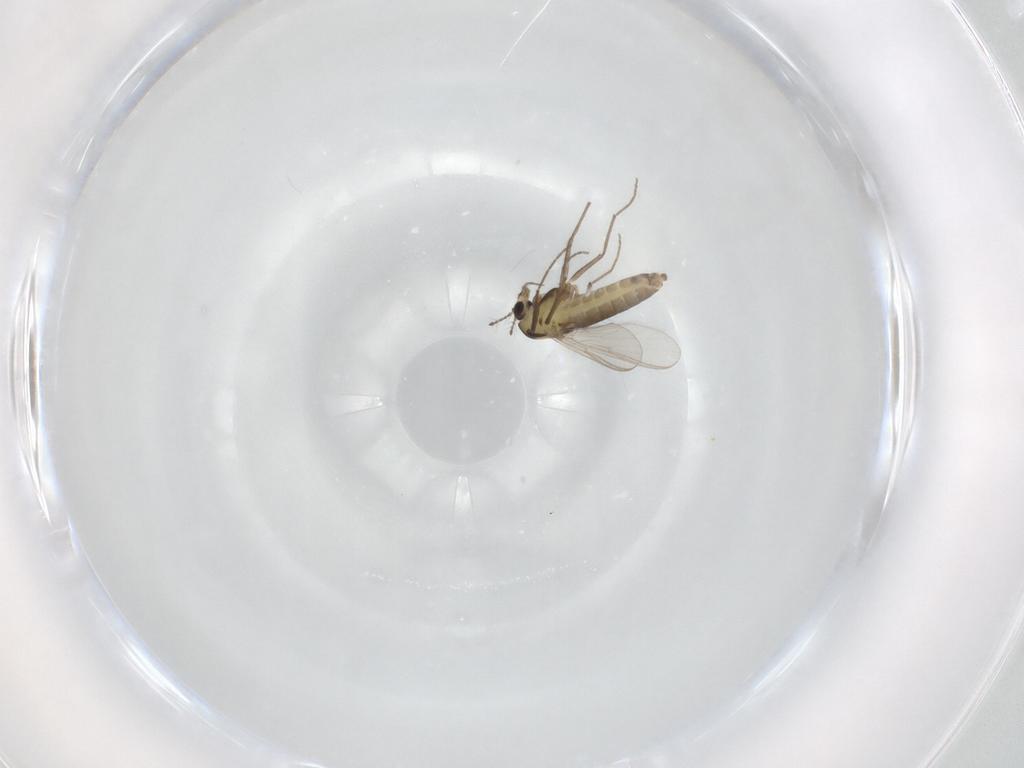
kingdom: Animalia
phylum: Arthropoda
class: Insecta
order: Diptera
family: Chironomidae
